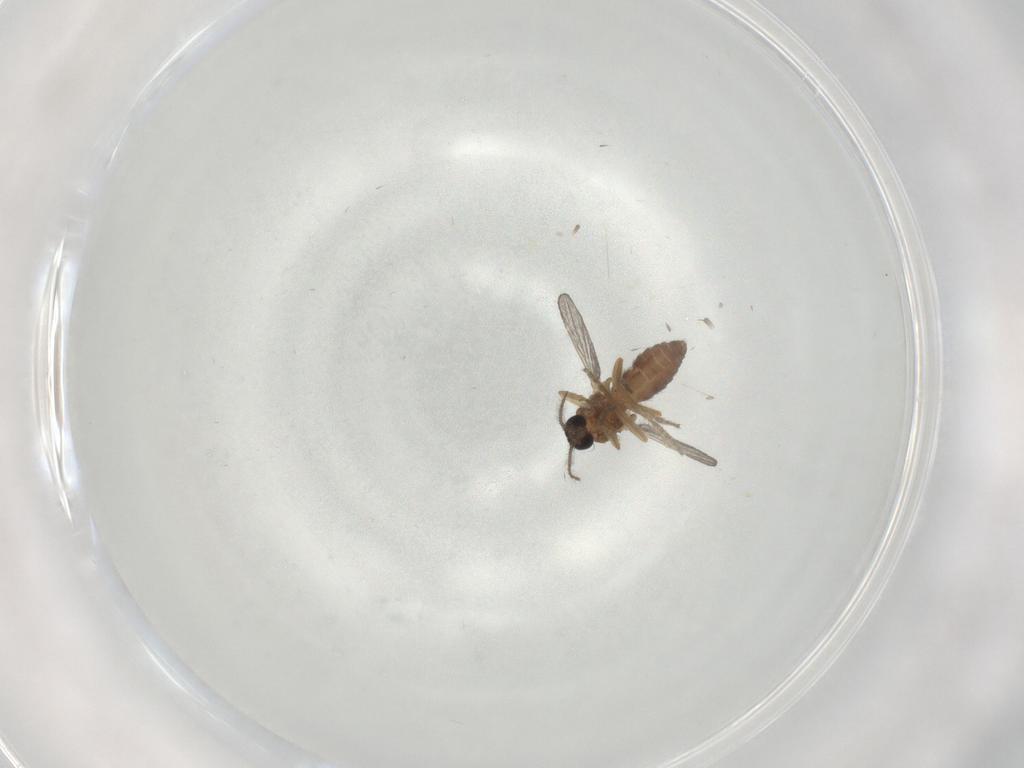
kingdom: Animalia
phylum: Arthropoda
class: Insecta
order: Diptera
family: Ceratopogonidae
